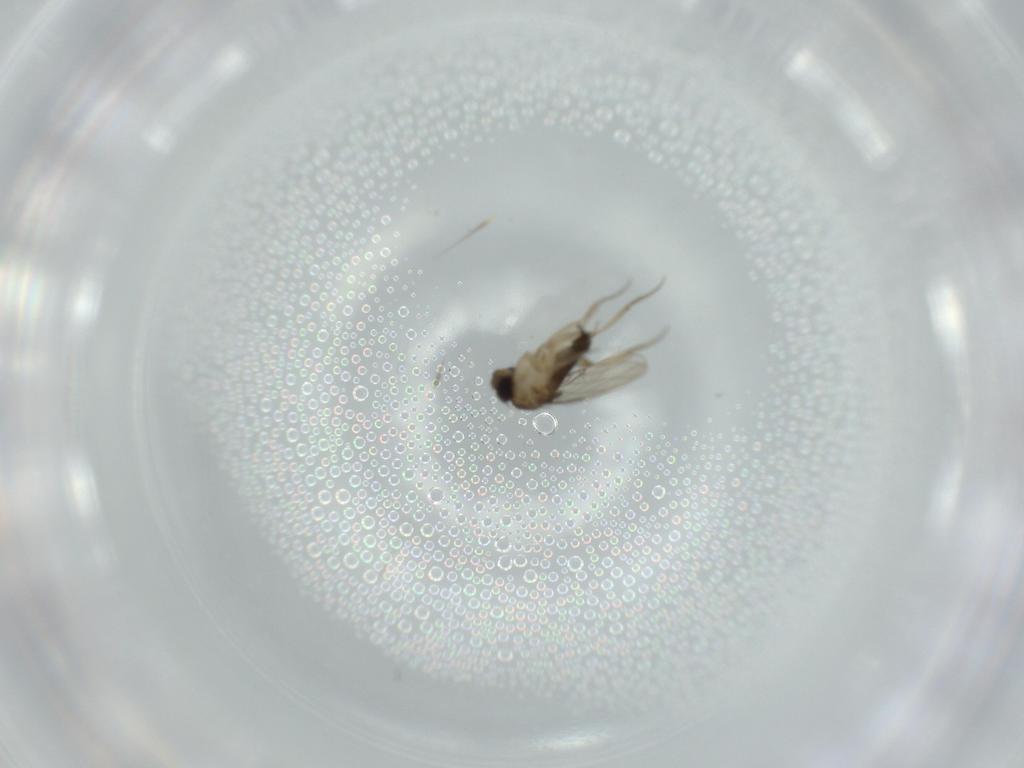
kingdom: Animalia
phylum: Arthropoda
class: Insecta
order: Diptera
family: Phoridae
